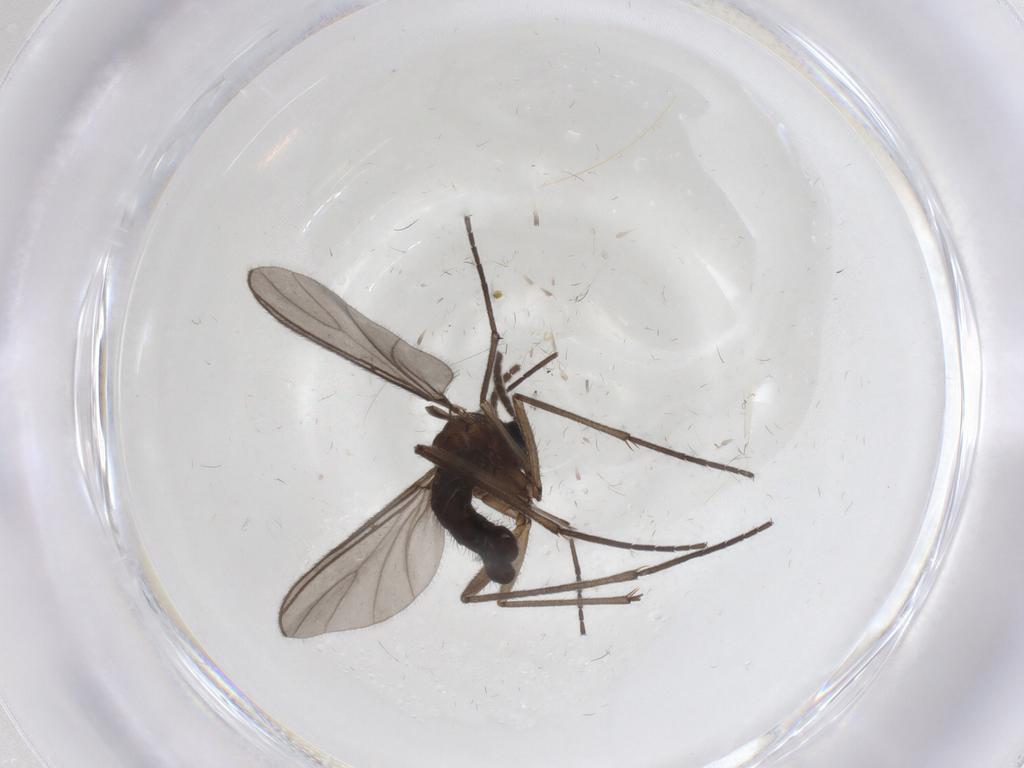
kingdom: Animalia
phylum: Arthropoda
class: Insecta
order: Diptera
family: Sciaridae
